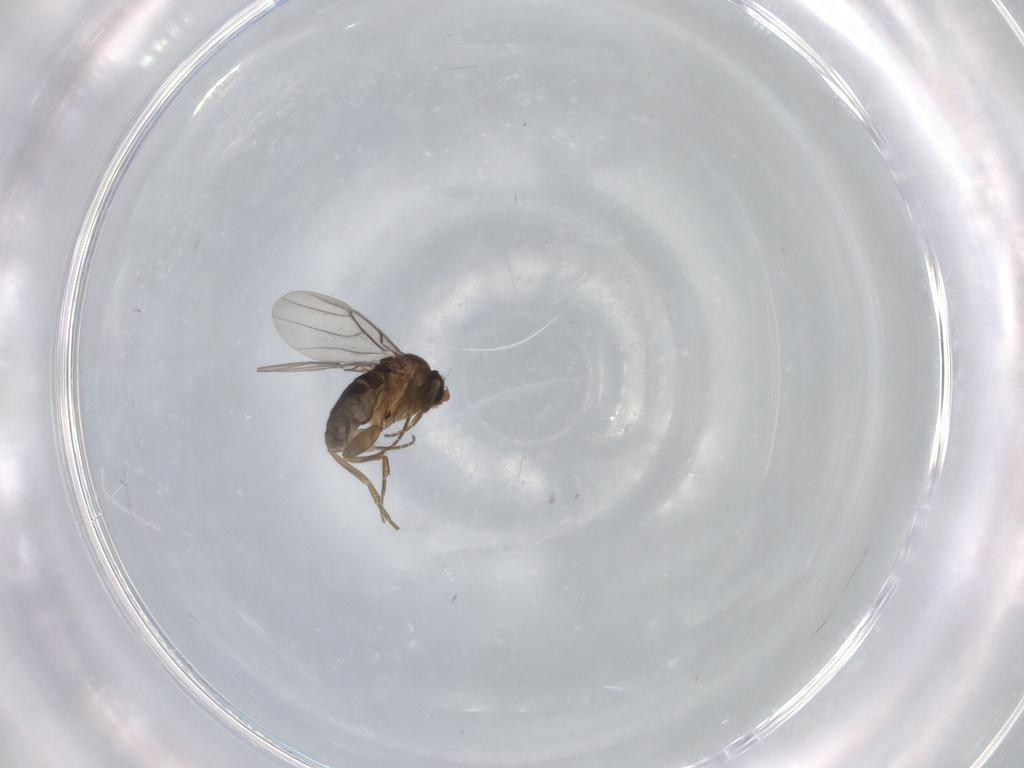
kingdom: Animalia
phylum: Arthropoda
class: Insecta
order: Diptera
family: Phoridae
